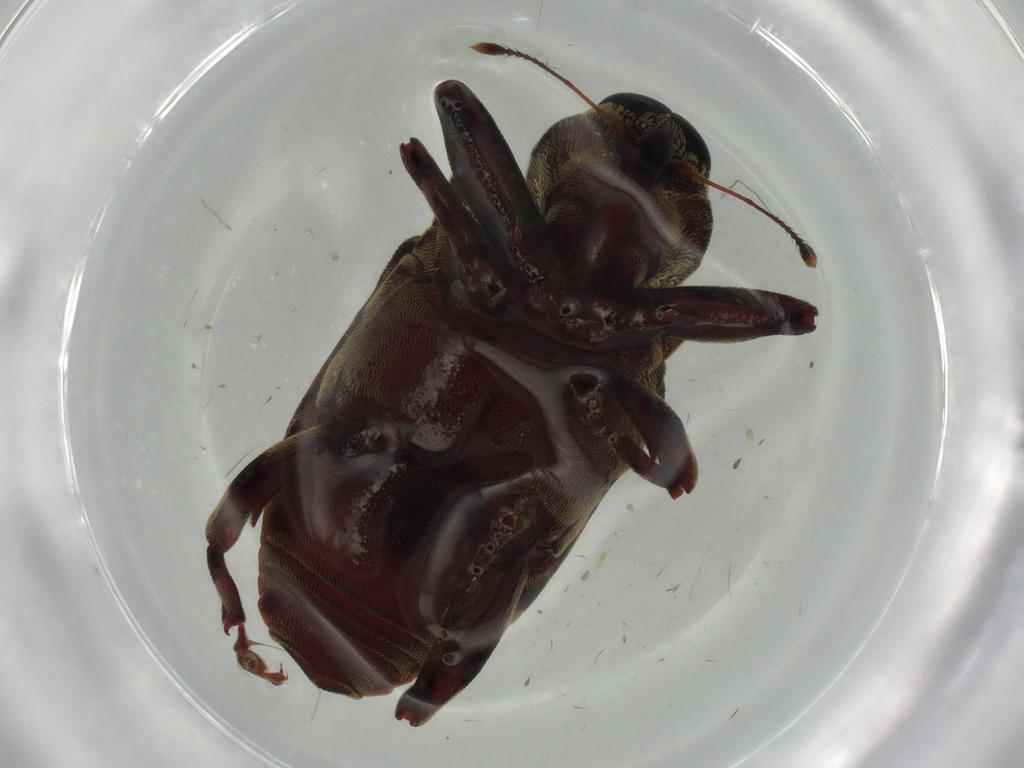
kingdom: Animalia
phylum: Arthropoda
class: Insecta
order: Coleoptera
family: Curculionidae
